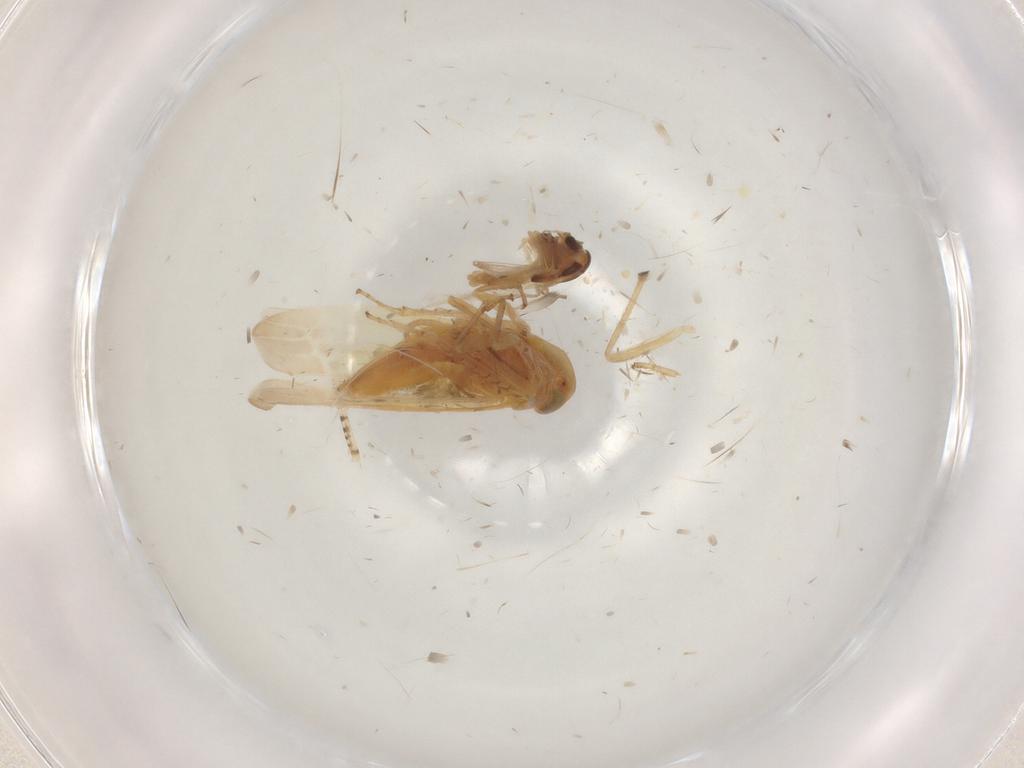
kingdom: Animalia
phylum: Arthropoda
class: Insecta
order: Hemiptera
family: Cicadellidae
